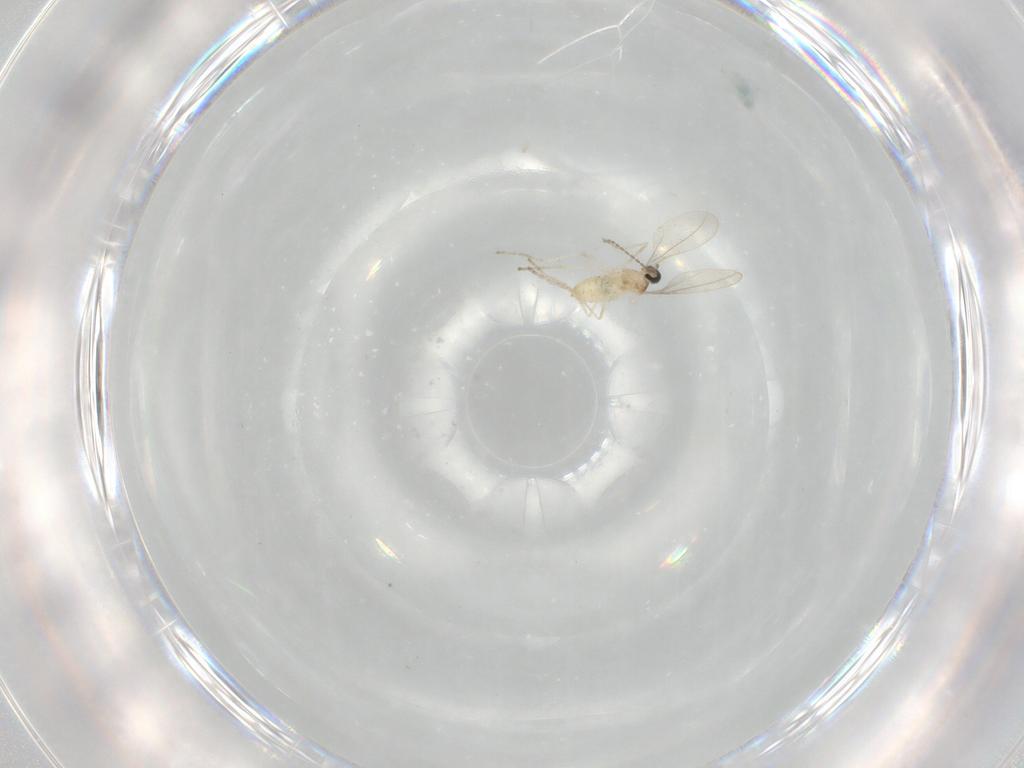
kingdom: Animalia
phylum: Arthropoda
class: Insecta
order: Diptera
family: Cecidomyiidae
